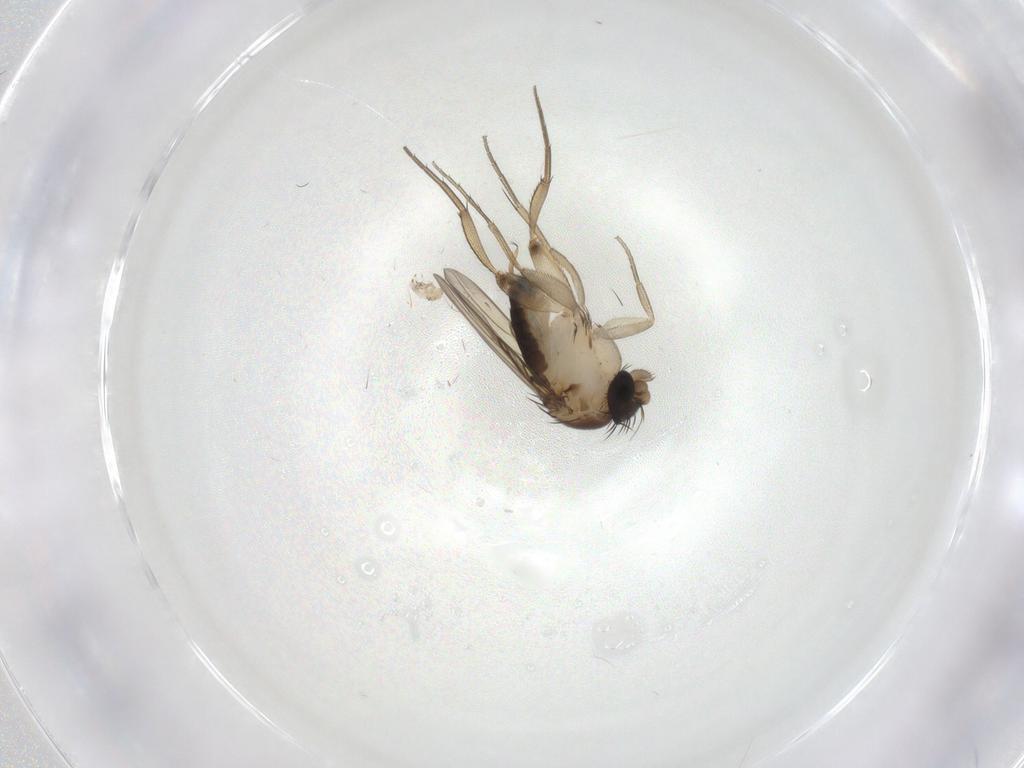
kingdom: Animalia
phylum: Arthropoda
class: Insecta
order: Diptera
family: Phoridae
